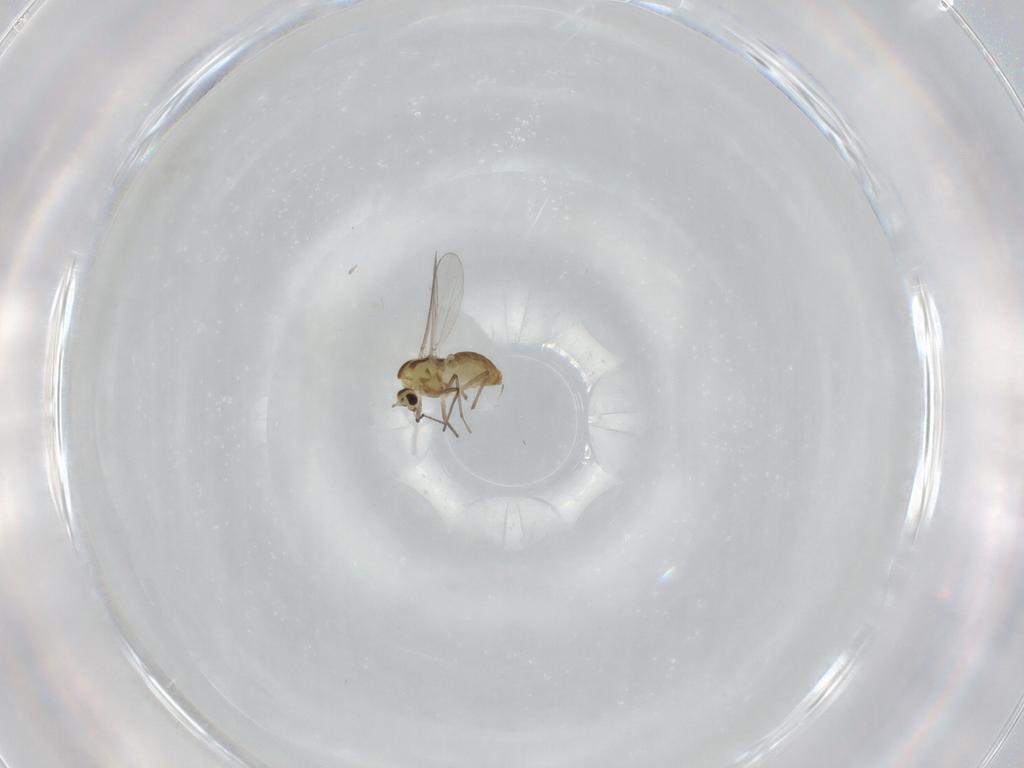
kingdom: Animalia
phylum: Arthropoda
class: Insecta
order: Diptera
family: Chironomidae
